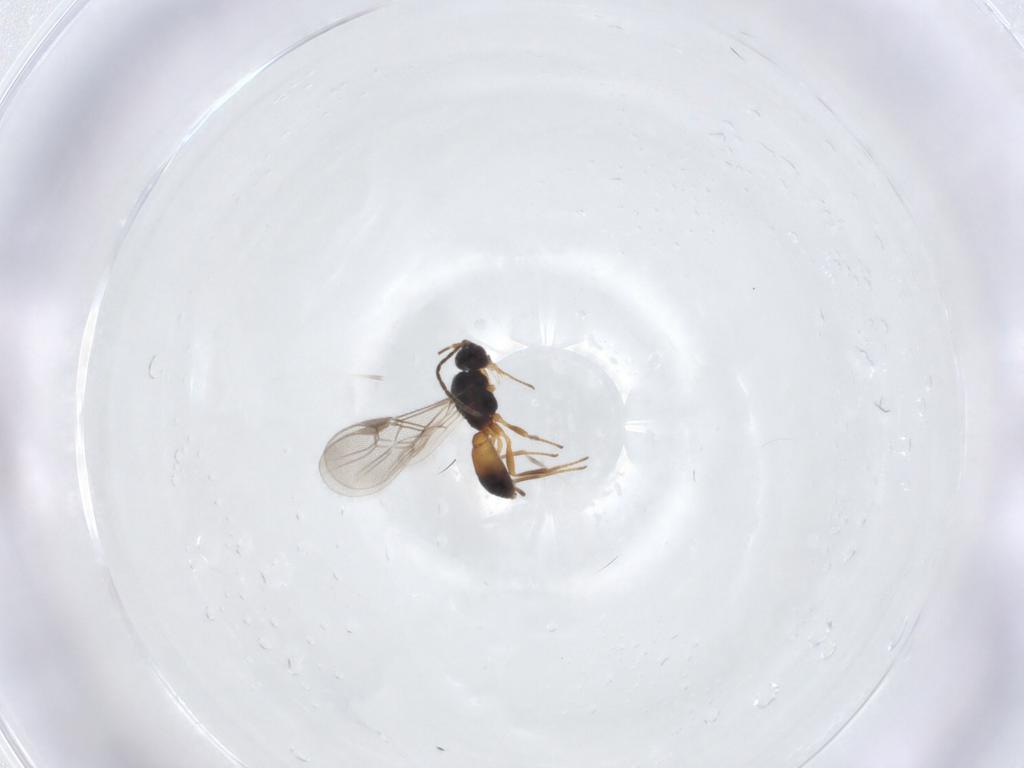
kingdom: Animalia
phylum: Arthropoda
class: Insecta
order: Hymenoptera
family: Braconidae
